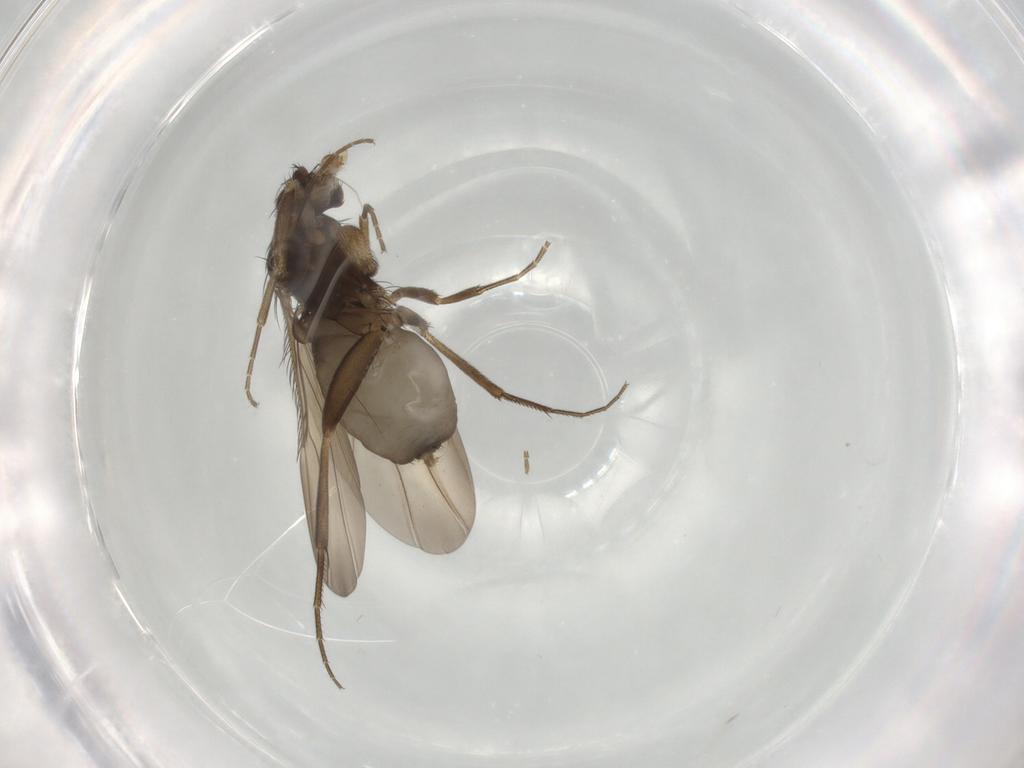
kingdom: Animalia
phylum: Arthropoda
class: Insecta
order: Diptera
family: Phoridae
